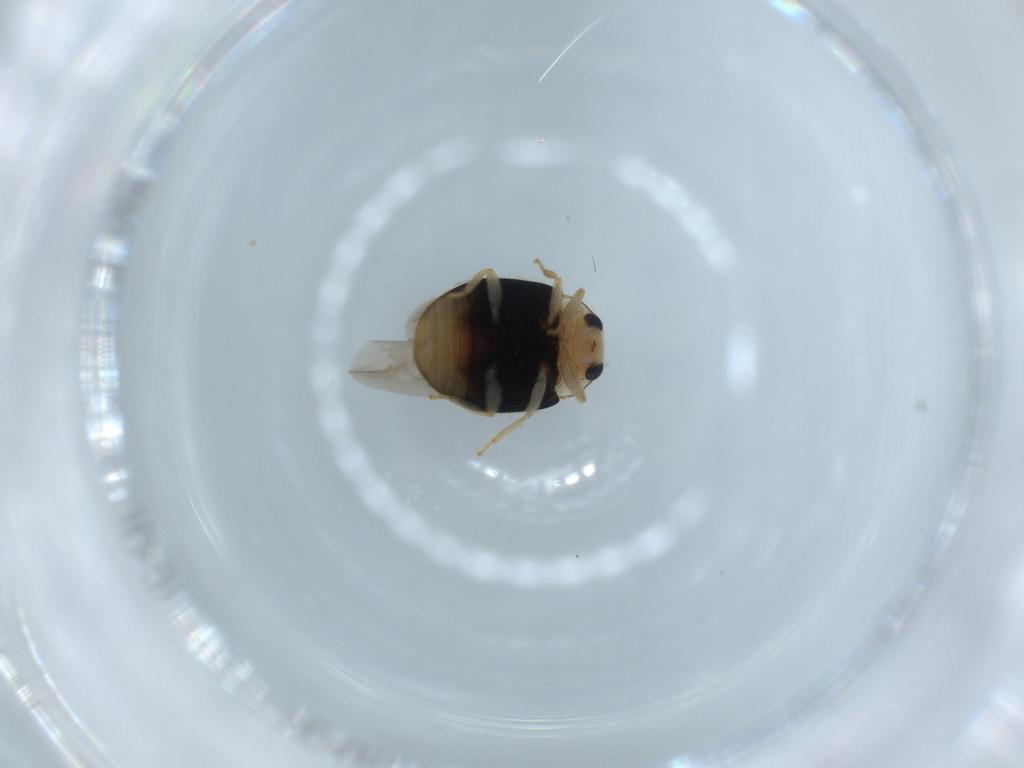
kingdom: Animalia
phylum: Arthropoda
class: Insecta
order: Coleoptera
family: Coccinellidae
